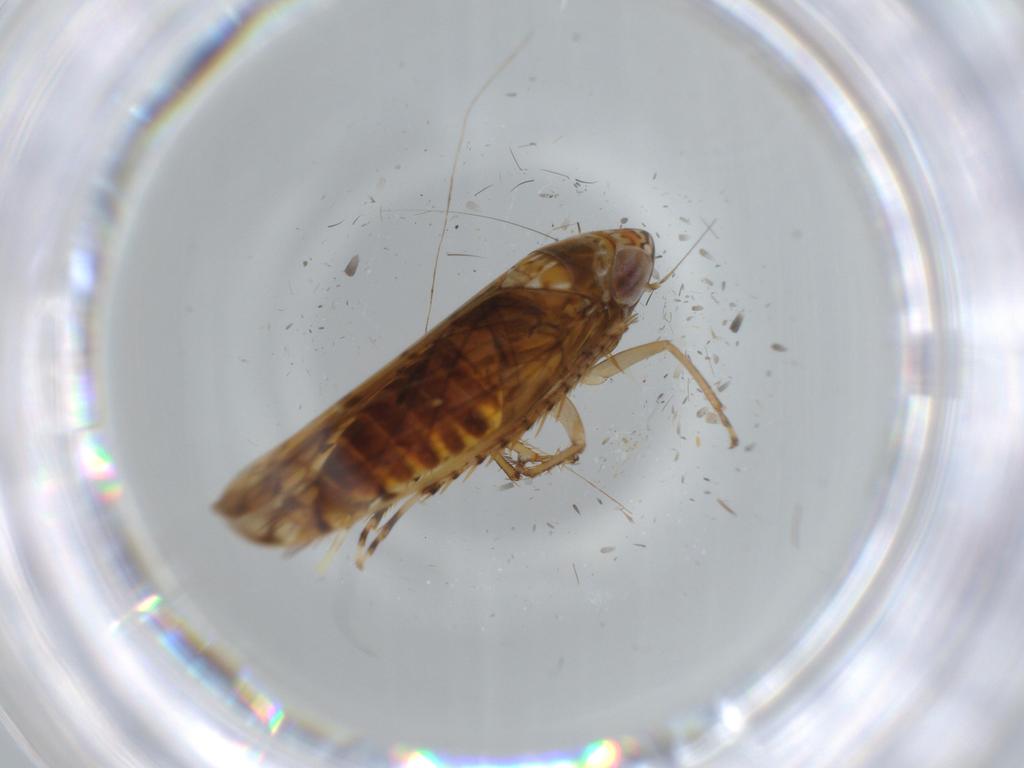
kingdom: Animalia
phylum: Arthropoda
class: Insecta
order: Hemiptera
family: Cicadellidae
